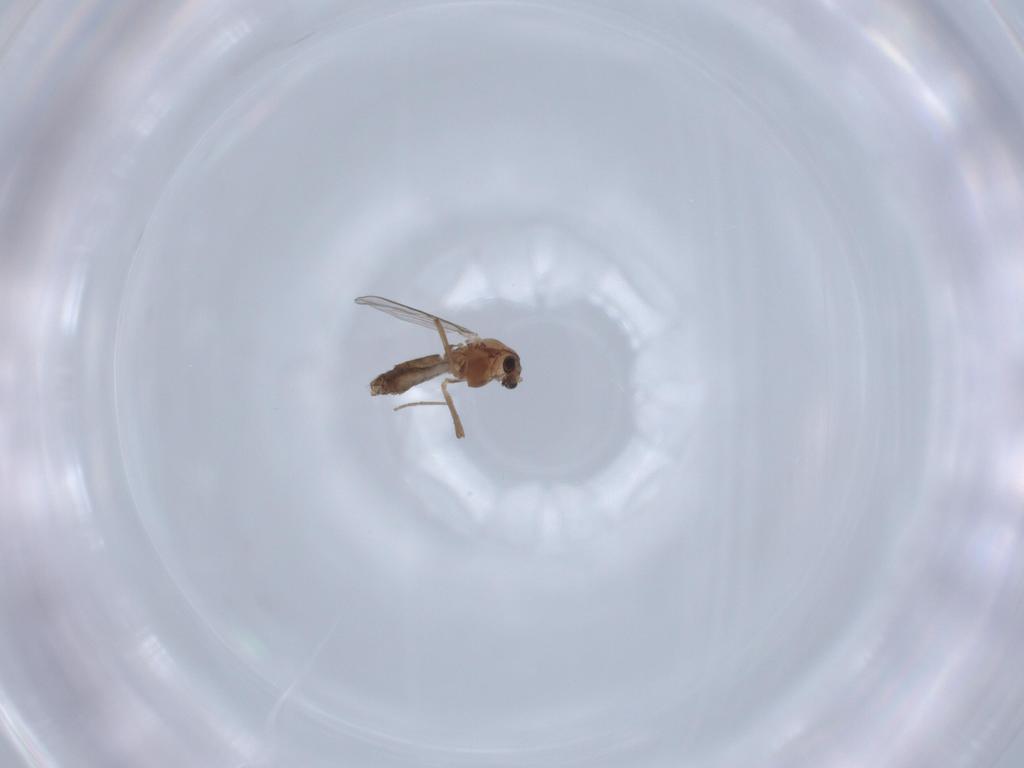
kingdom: Animalia
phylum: Arthropoda
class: Insecta
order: Diptera
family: Chironomidae
